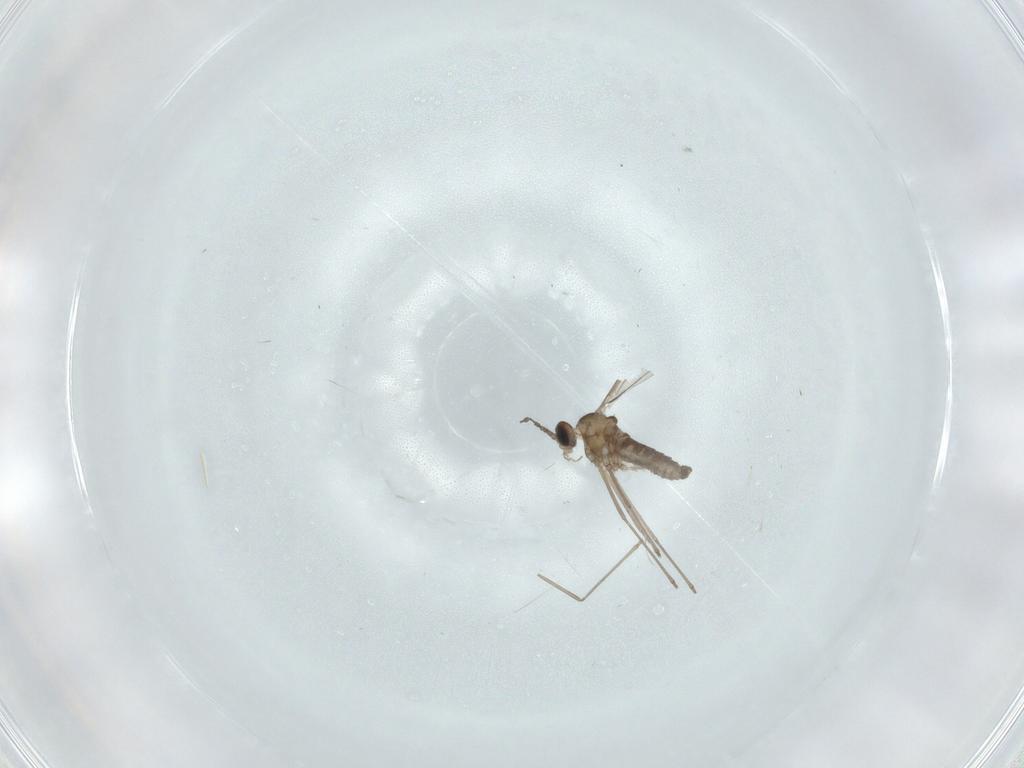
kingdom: Animalia
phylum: Arthropoda
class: Insecta
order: Diptera
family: Cecidomyiidae
